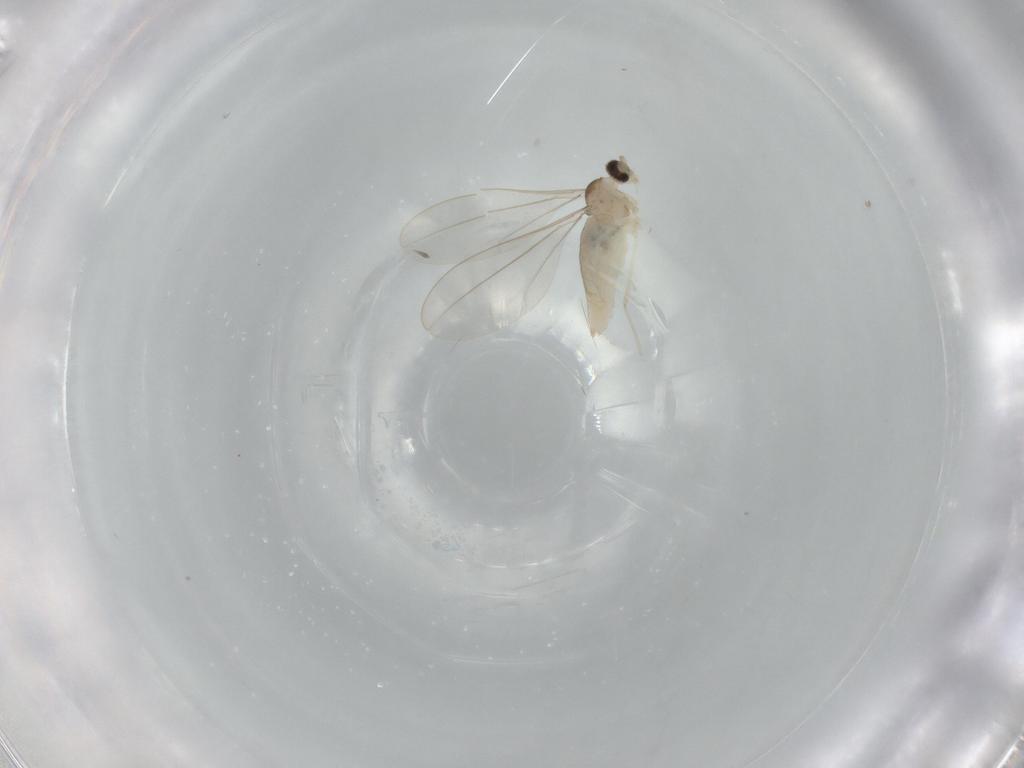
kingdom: Animalia
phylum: Arthropoda
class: Insecta
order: Diptera
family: Cecidomyiidae
